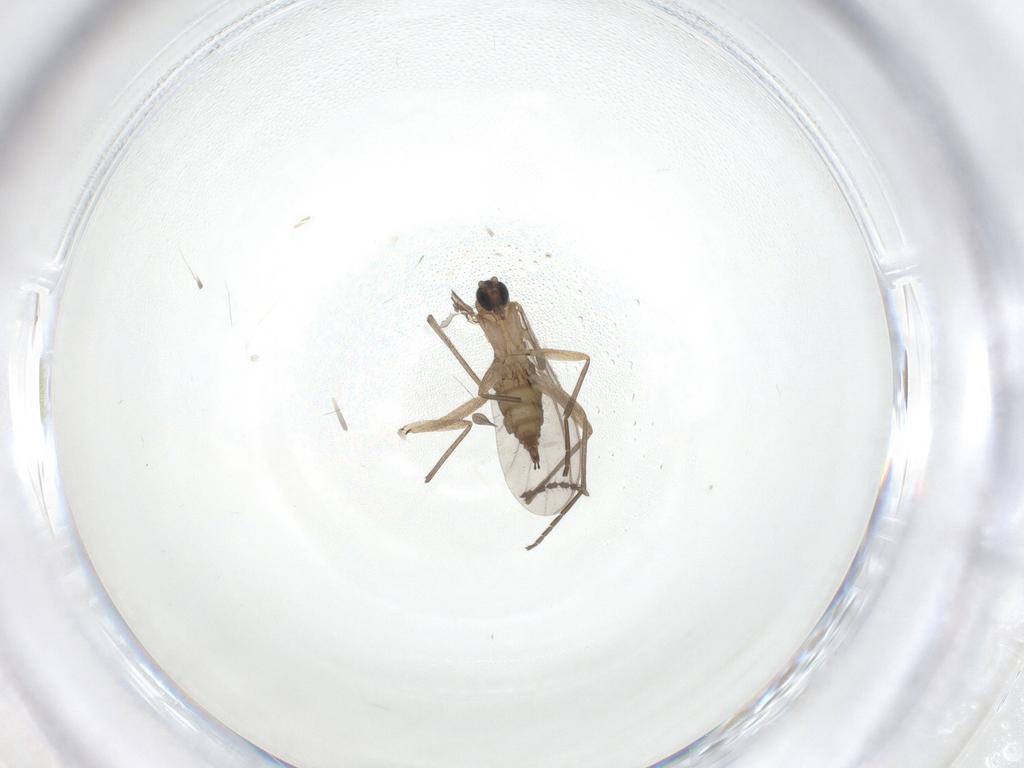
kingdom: Animalia
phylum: Arthropoda
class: Insecta
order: Diptera
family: Sciaridae
